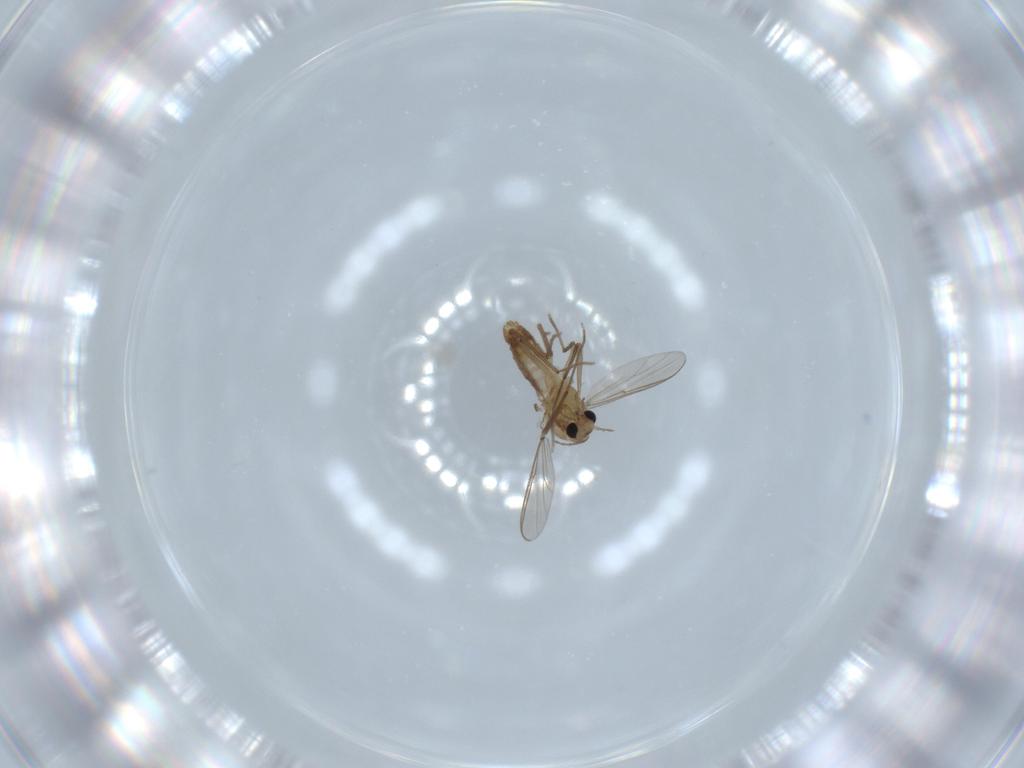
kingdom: Animalia
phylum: Arthropoda
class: Insecta
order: Diptera
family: Chironomidae
